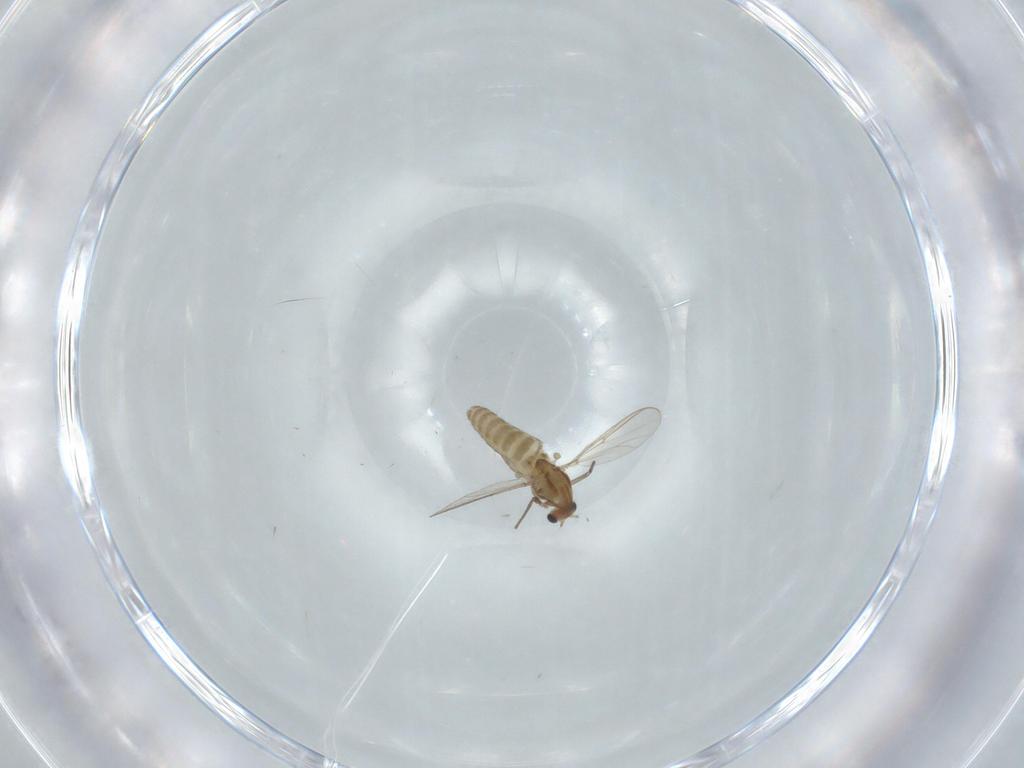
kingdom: Animalia
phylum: Arthropoda
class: Insecta
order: Diptera
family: Chironomidae
